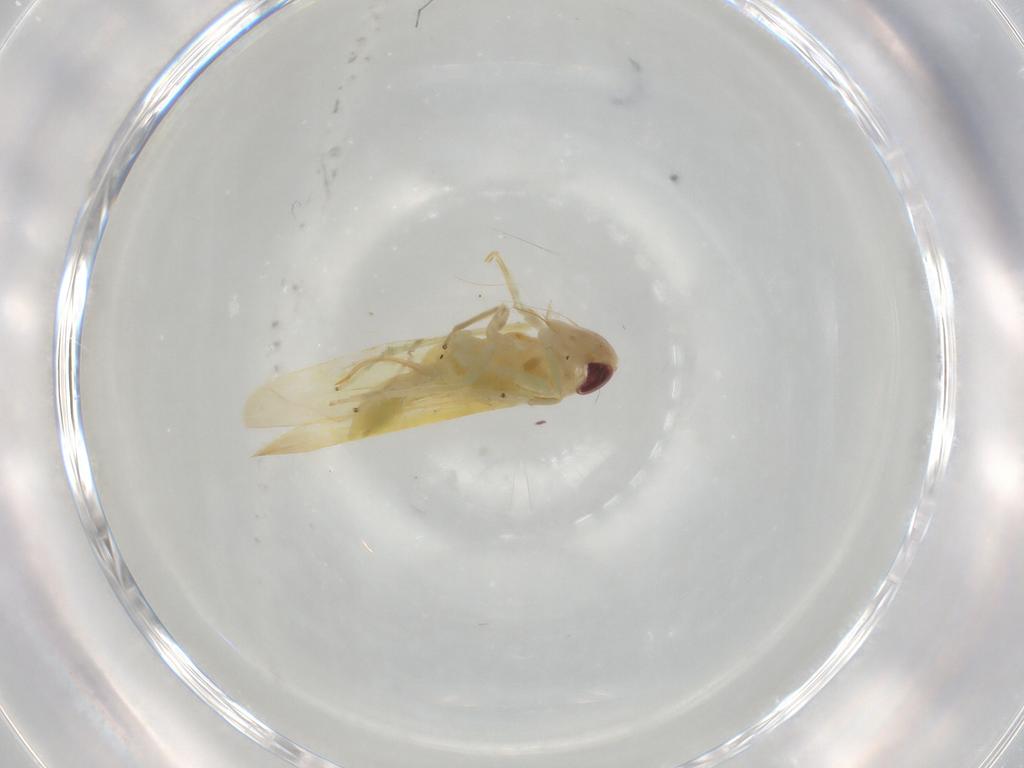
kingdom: Animalia
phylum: Arthropoda
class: Insecta
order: Hemiptera
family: Cicadellidae
